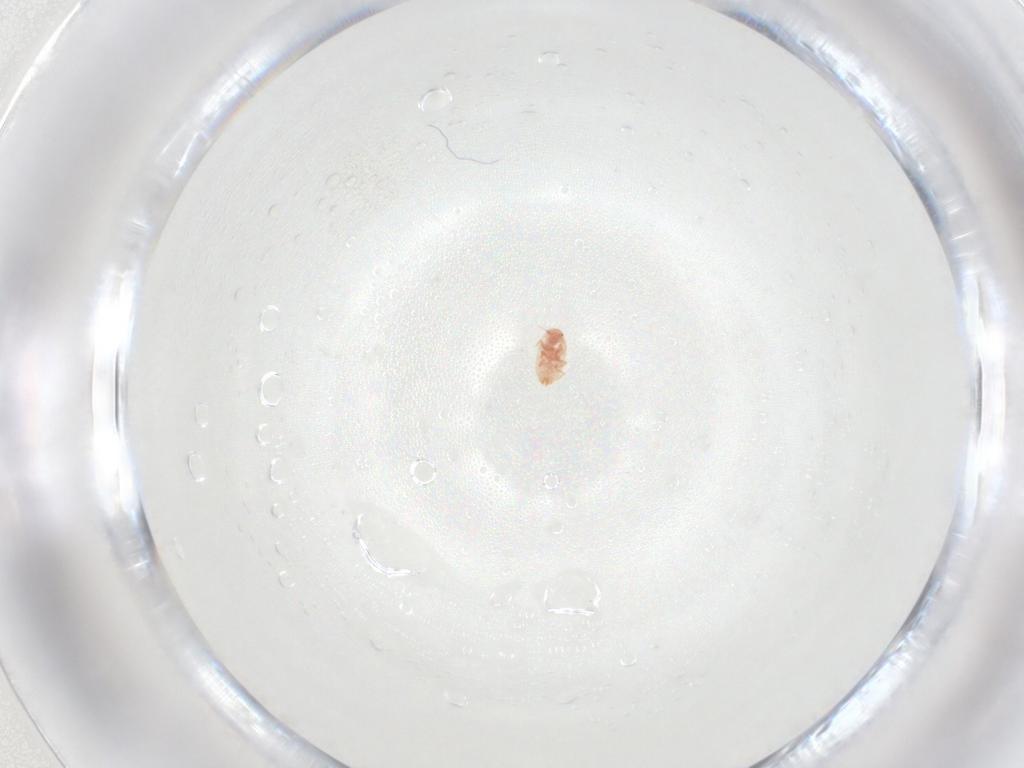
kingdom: Animalia
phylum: Arthropoda
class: Insecta
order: Hemiptera
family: Coccidae
